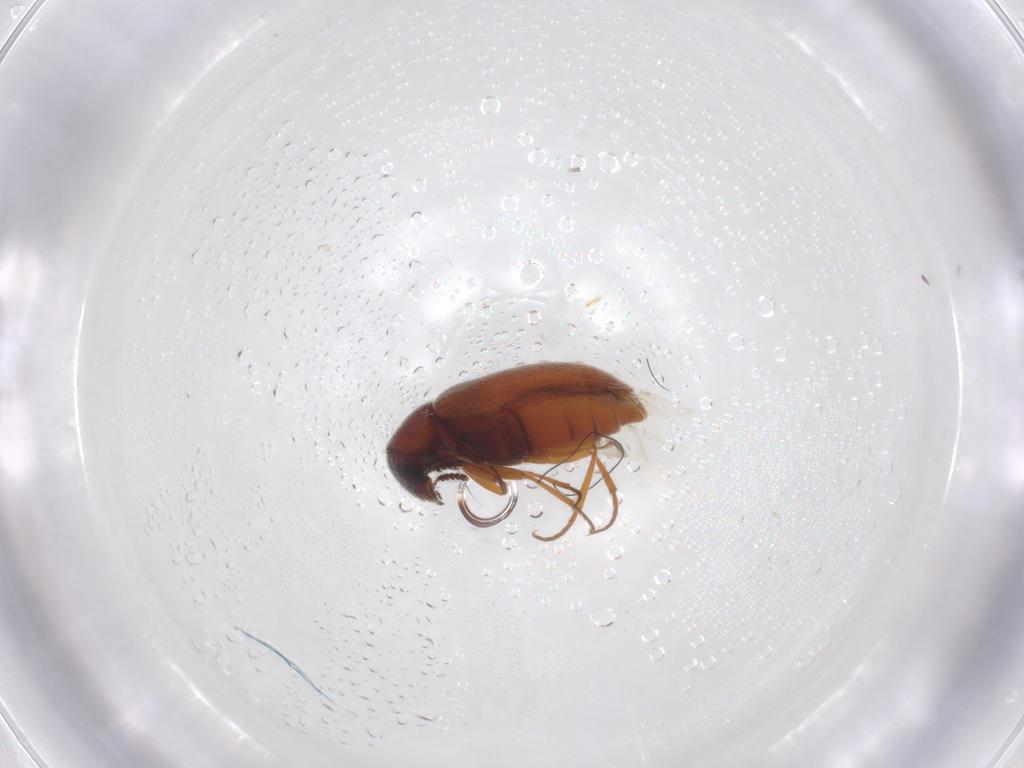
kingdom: Animalia
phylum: Arthropoda
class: Insecta
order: Coleoptera
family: Rhadalidae
